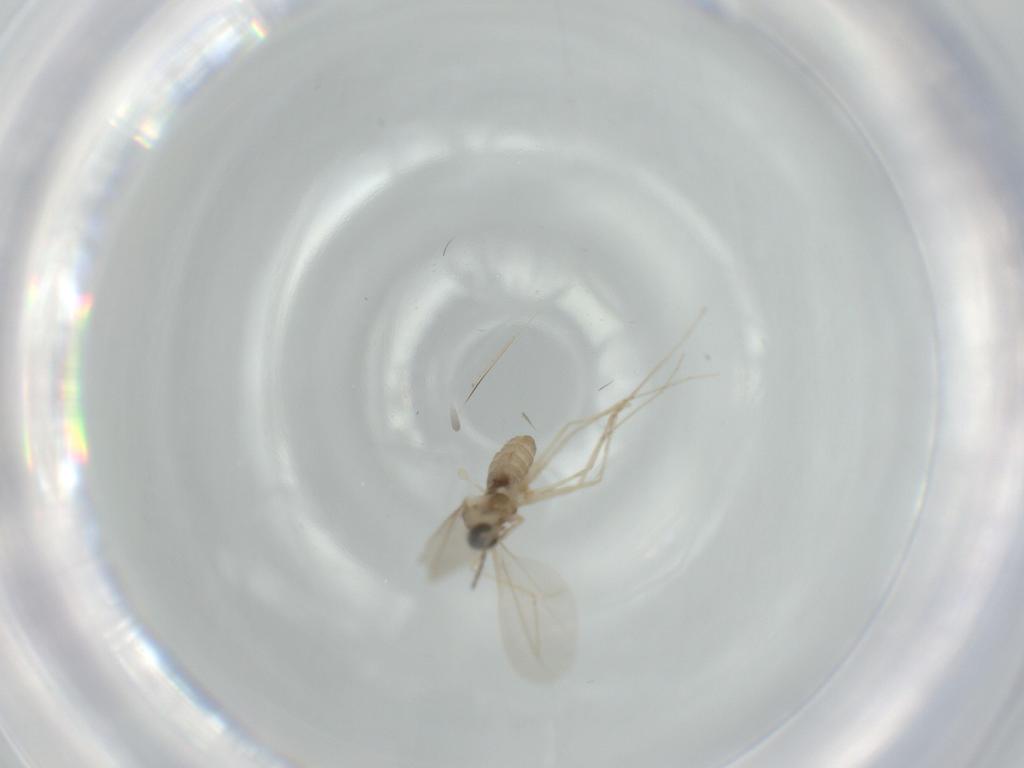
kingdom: Animalia
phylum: Arthropoda
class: Insecta
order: Diptera
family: Cecidomyiidae
